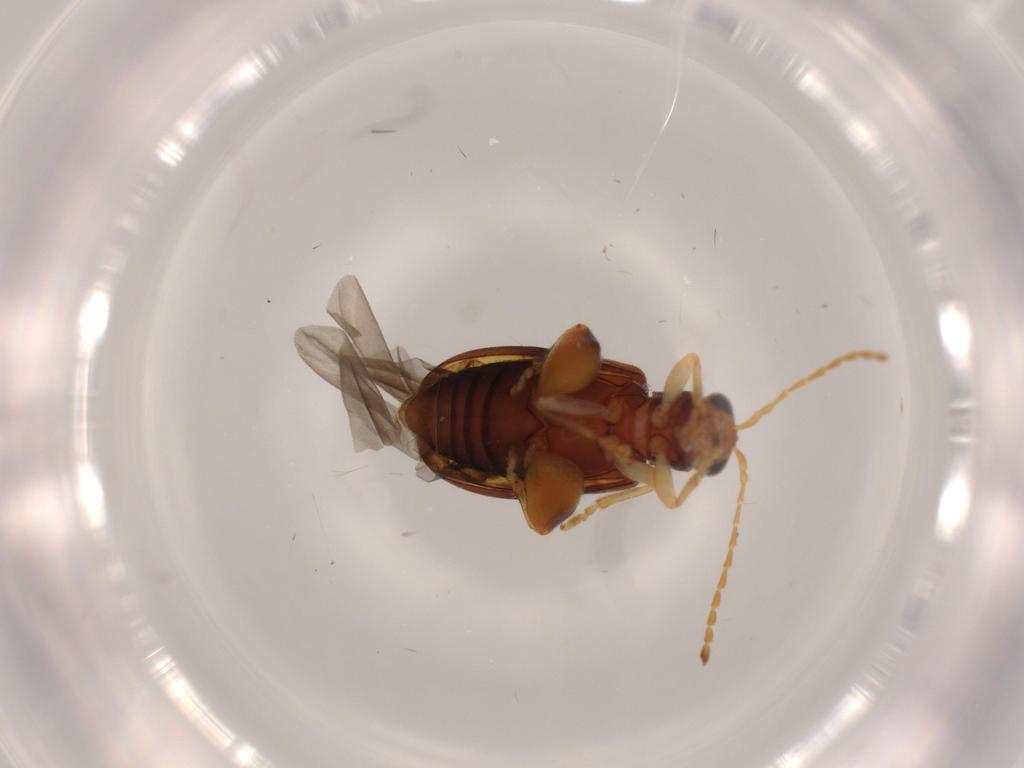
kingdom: Animalia
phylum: Arthropoda
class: Insecta
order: Coleoptera
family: Chrysomelidae
